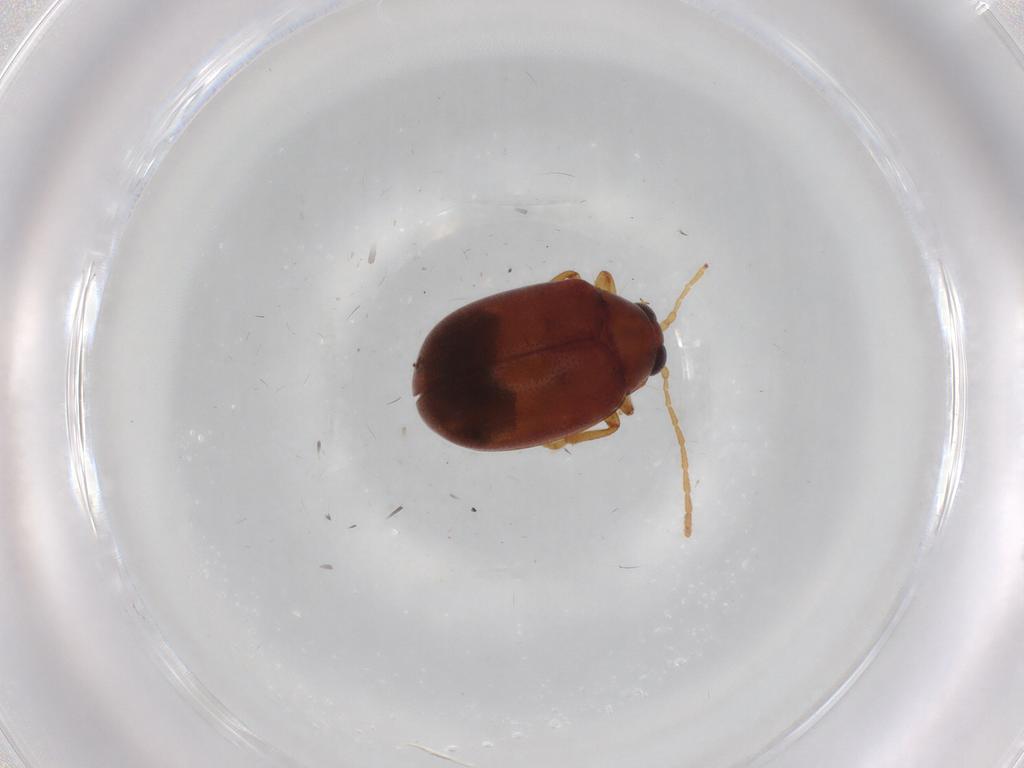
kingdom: Animalia
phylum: Arthropoda
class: Insecta
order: Coleoptera
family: Chrysomelidae
